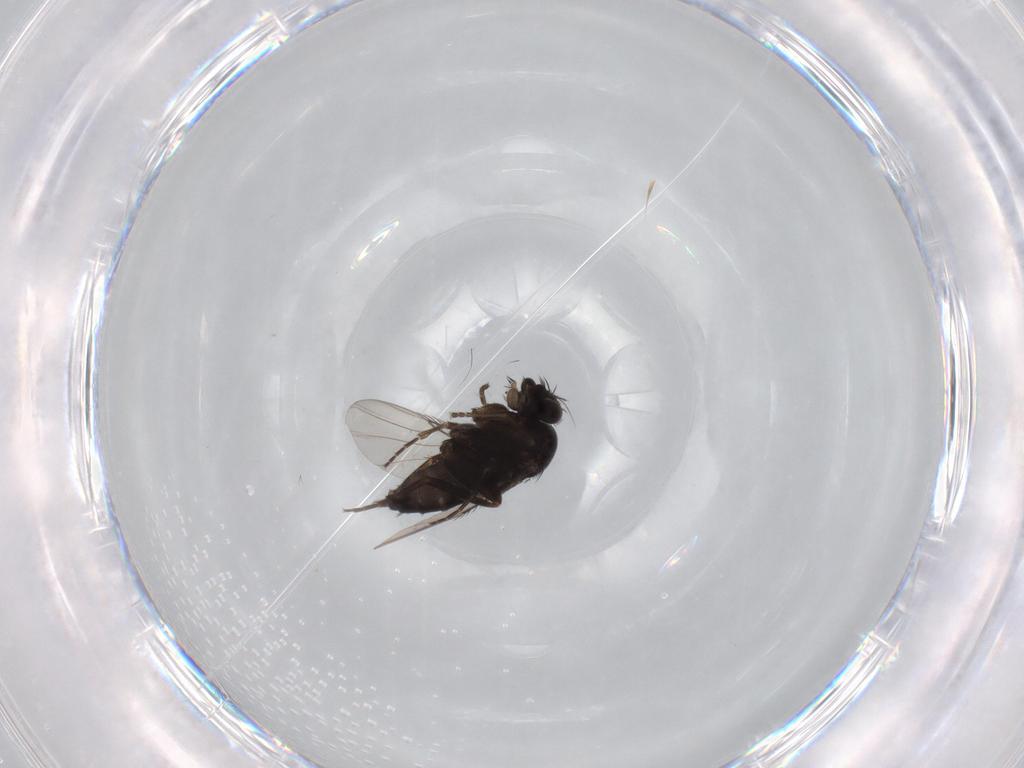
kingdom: Animalia
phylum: Arthropoda
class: Insecta
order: Diptera
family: Phoridae
